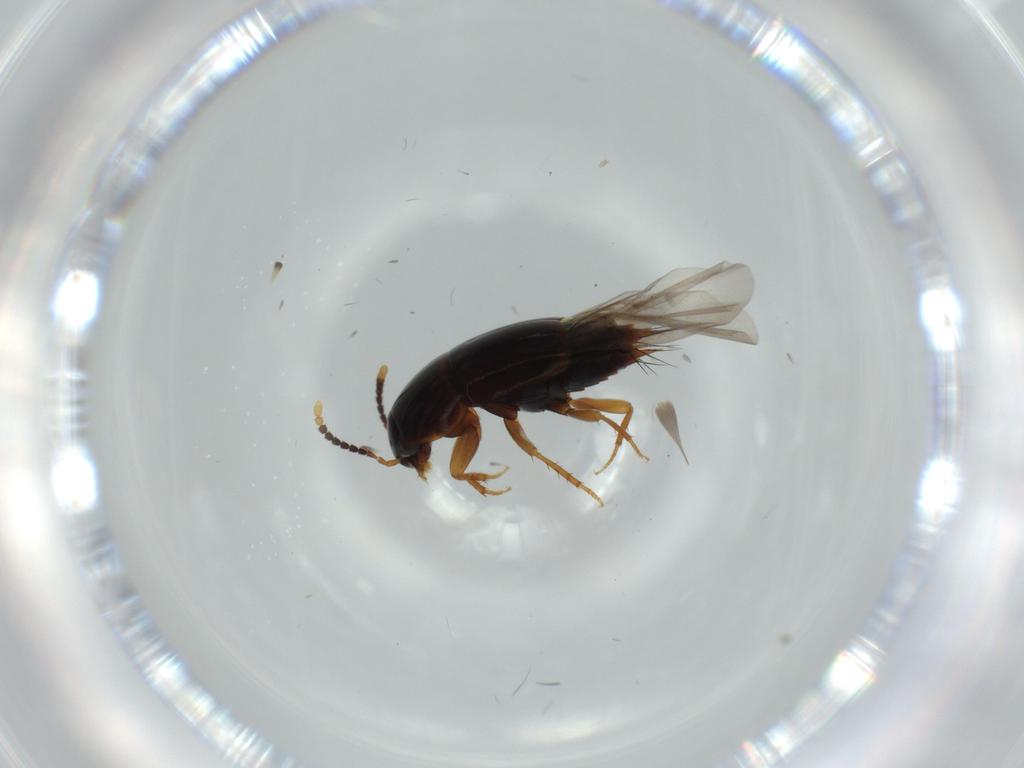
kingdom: Animalia
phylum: Arthropoda
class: Insecta
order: Coleoptera
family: Staphylinidae
